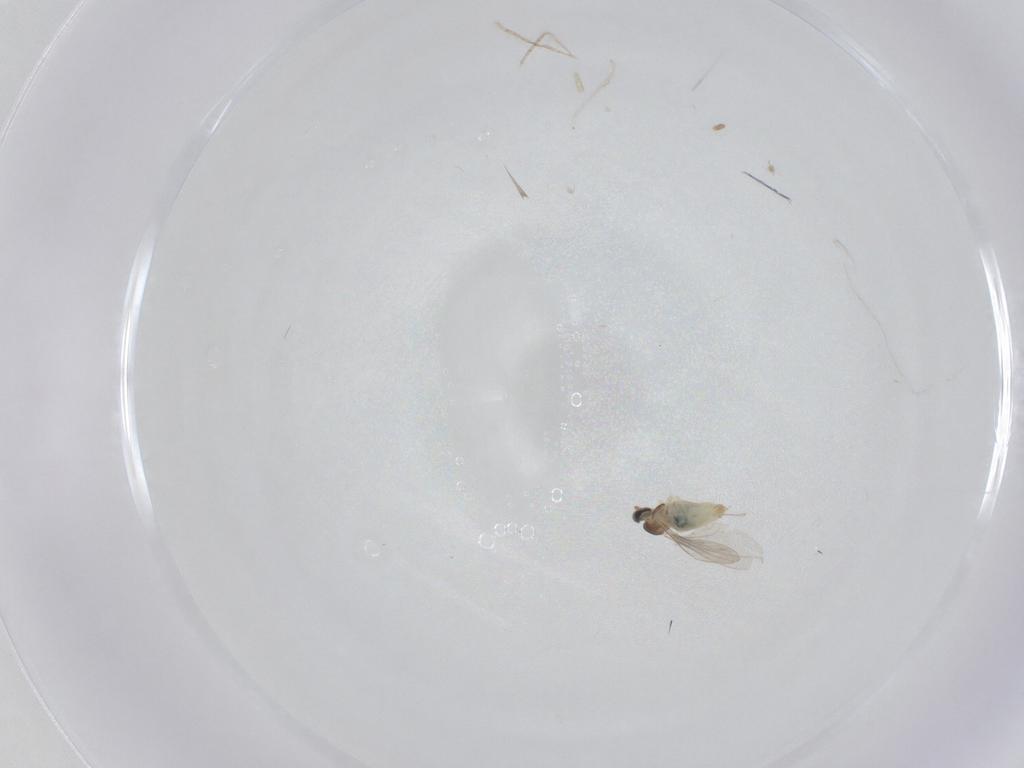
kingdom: Animalia
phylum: Arthropoda
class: Insecta
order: Diptera
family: Cecidomyiidae
